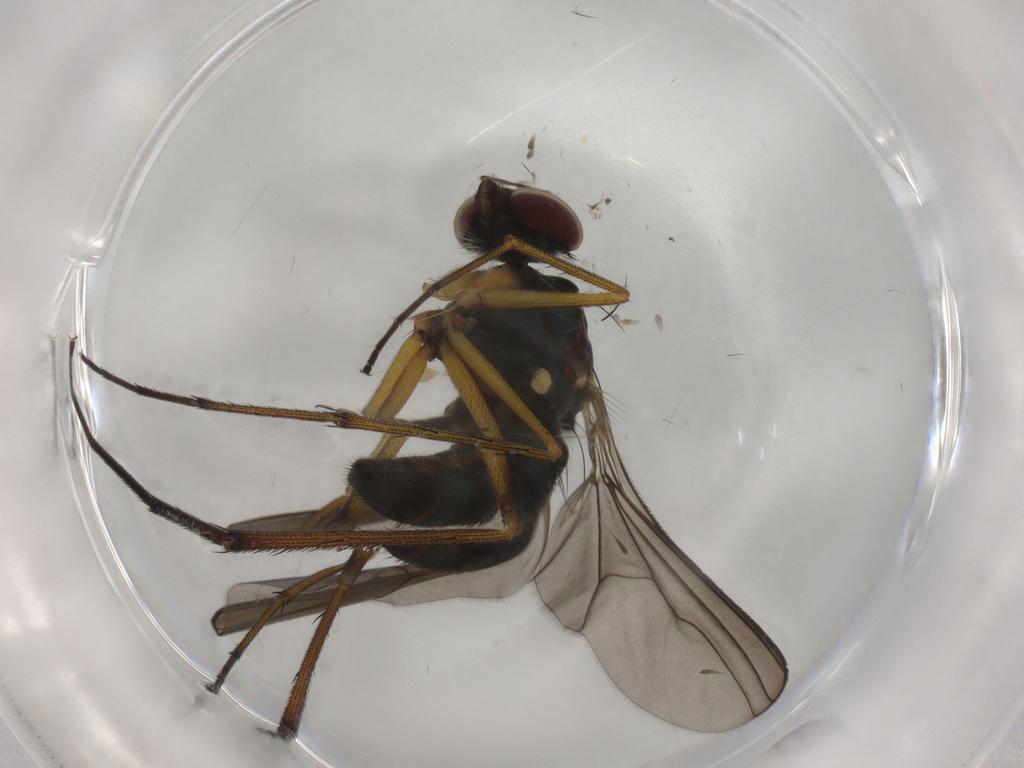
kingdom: Animalia
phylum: Arthropoda
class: Insecta
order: Diptera
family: Dolichopodidae
